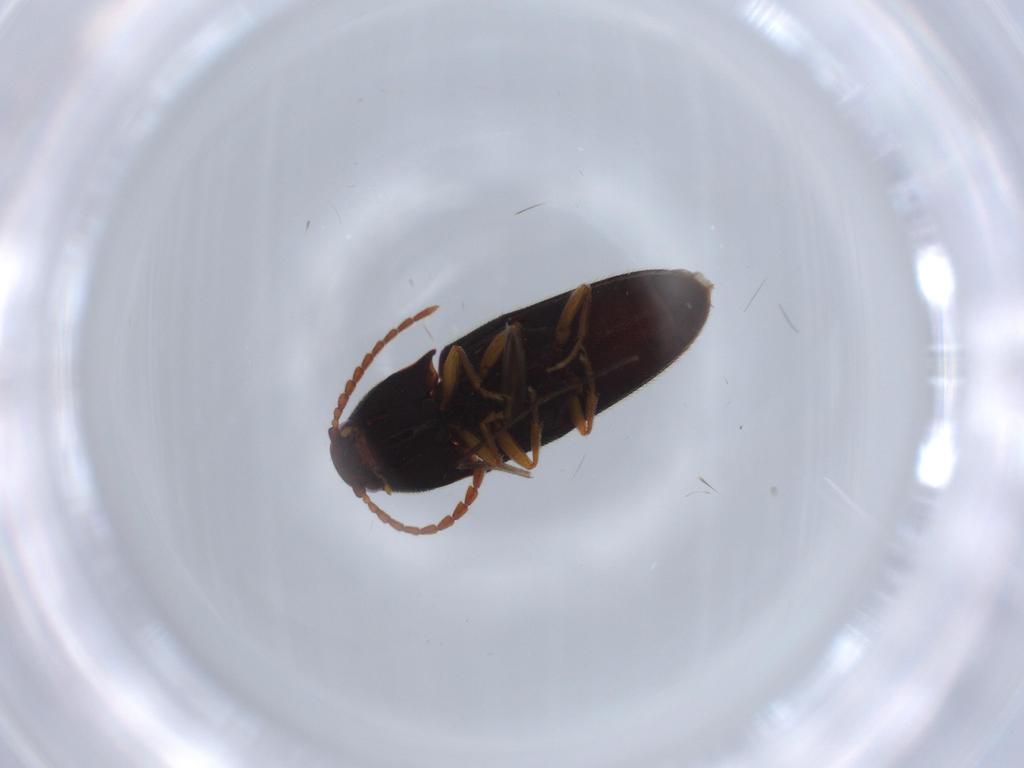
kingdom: Animalia
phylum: Arthropoda
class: Insecta
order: Coleoptera
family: Elateridae
